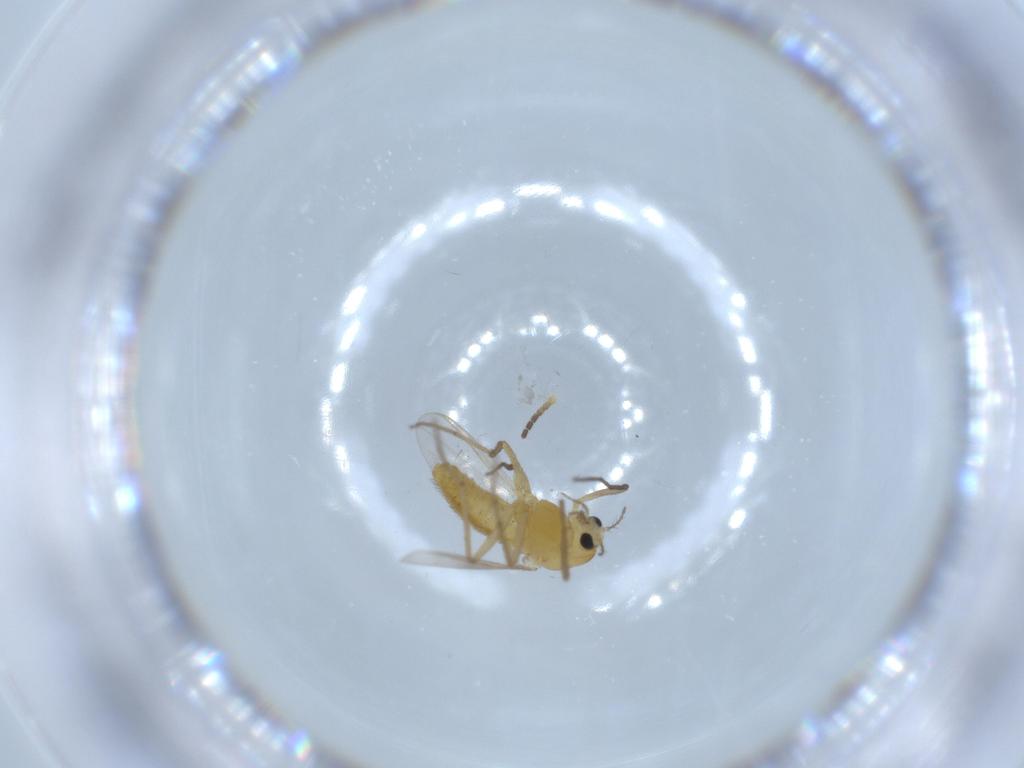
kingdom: Animalia
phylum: Arthropoda
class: Insecta
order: Diptera
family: Chironomidae
